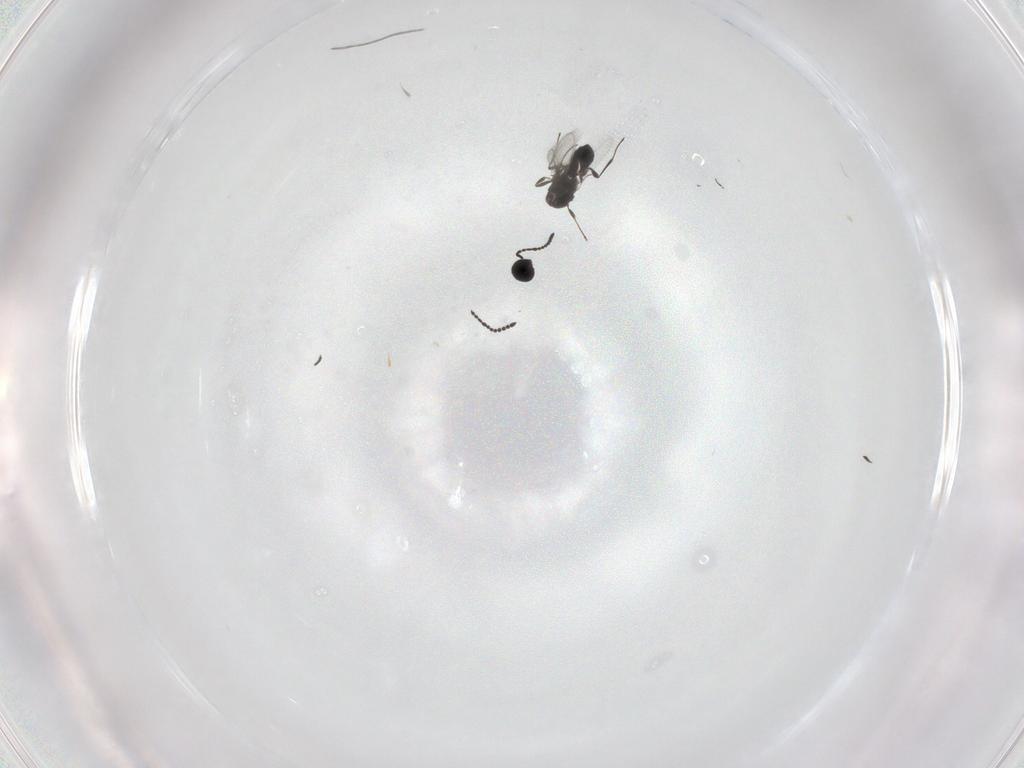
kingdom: Animalia
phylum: Arthropoda
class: Insecta
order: Hymenoptera
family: Scelionidae
